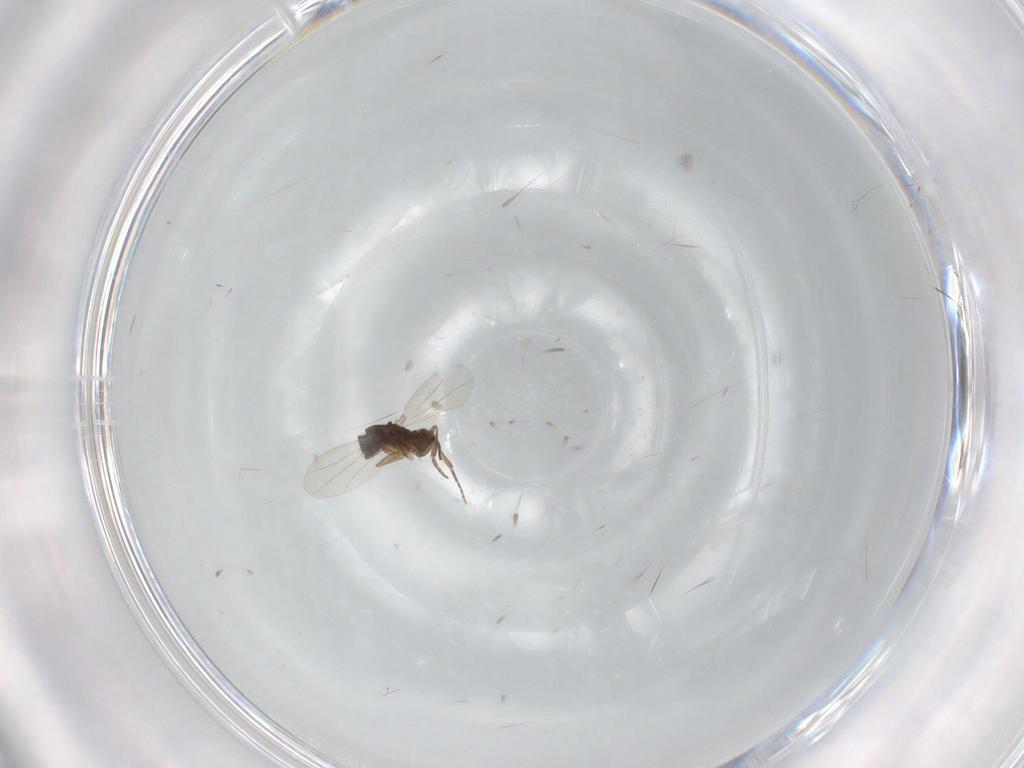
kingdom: Animalia
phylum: Arthropoda
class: Insecta
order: Diptera
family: Phoridae
